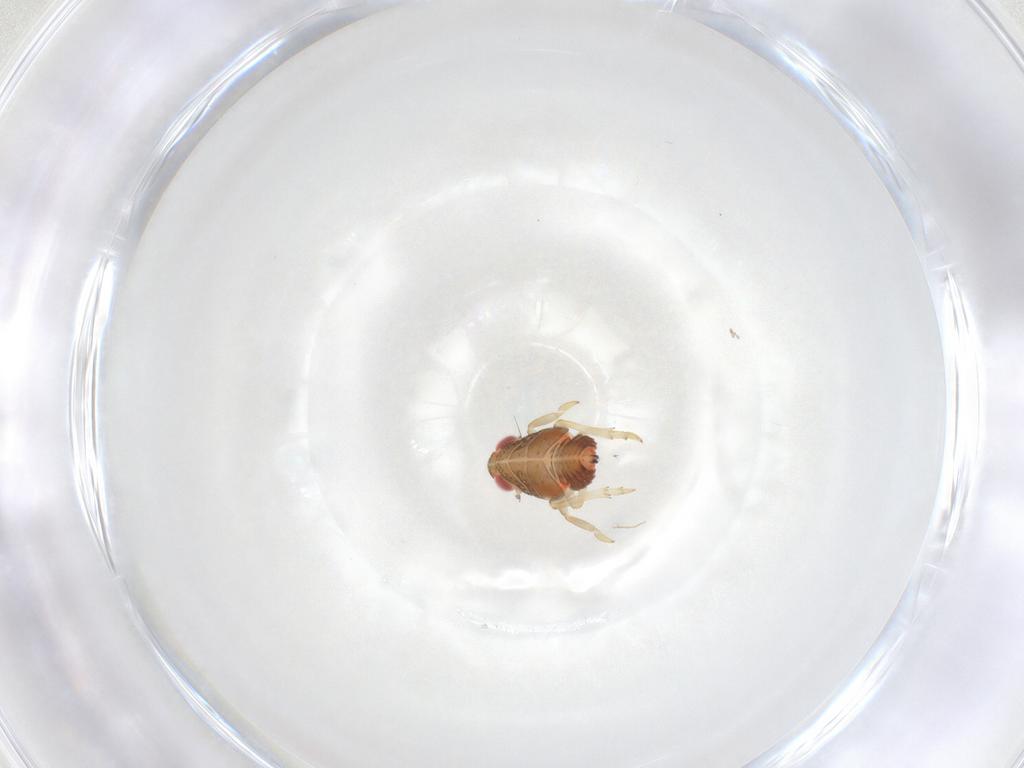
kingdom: Animalia
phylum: Arthropoda
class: Insecta
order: Hemiptera
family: Issidae
